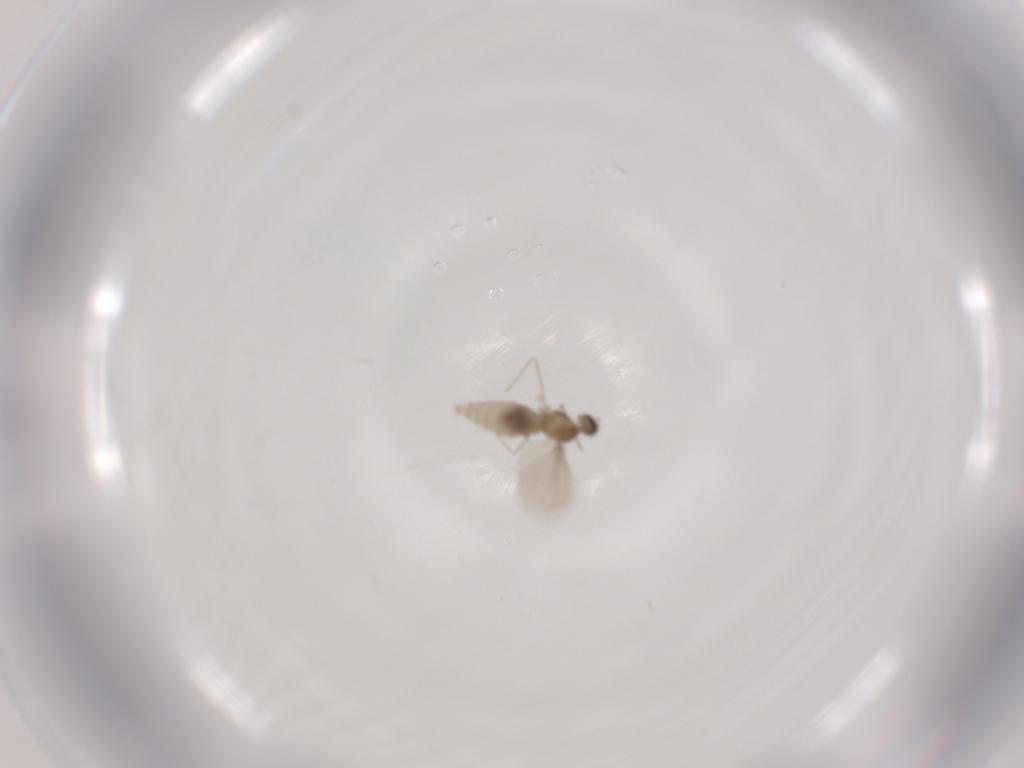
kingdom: Animalia
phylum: Arthropoda
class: Insecta
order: Diptera
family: Cecidomyiidae
